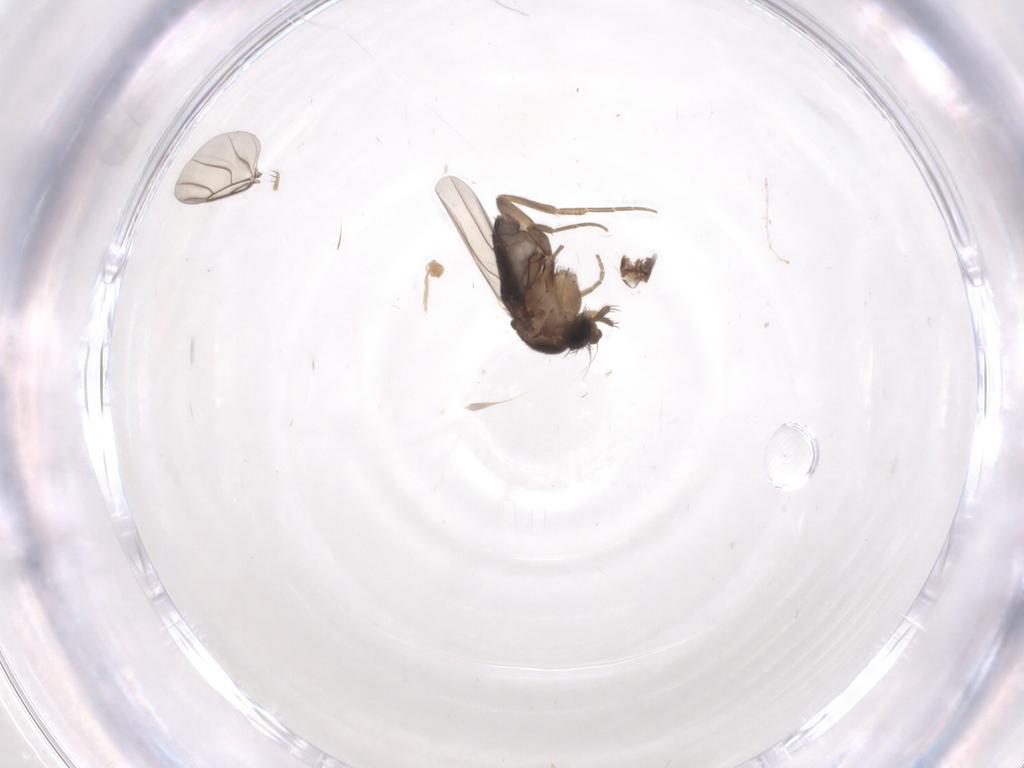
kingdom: Animalia
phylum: Arthropoda
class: Insecta
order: Diptera
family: Phoridae
